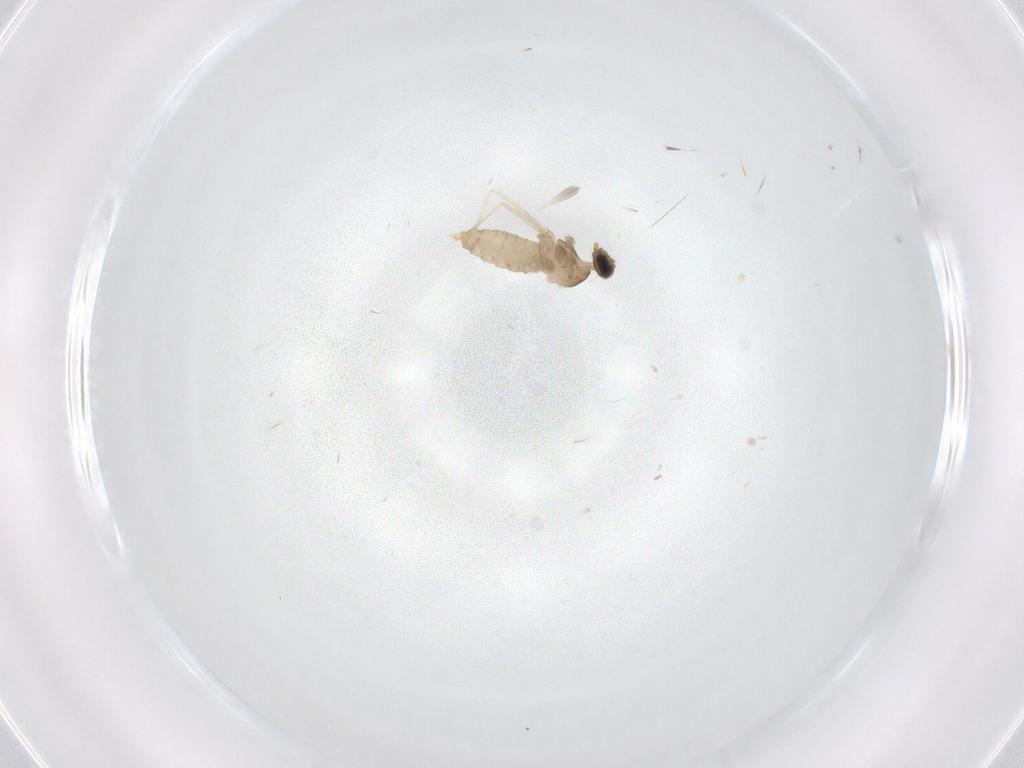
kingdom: Animalia
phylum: Arthropoda
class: Insecta
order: Diptera
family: Cecidomyiidae
